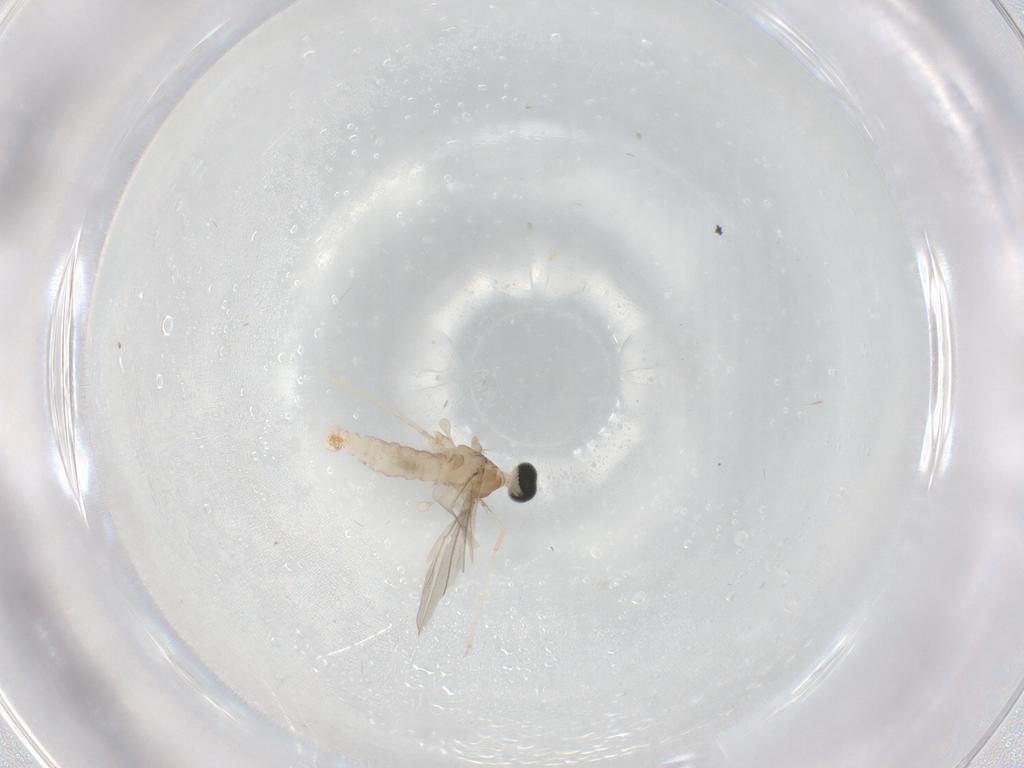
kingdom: Animalia
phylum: Arthropoda
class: Insecta
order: Diptera
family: Cecidomyiidae
